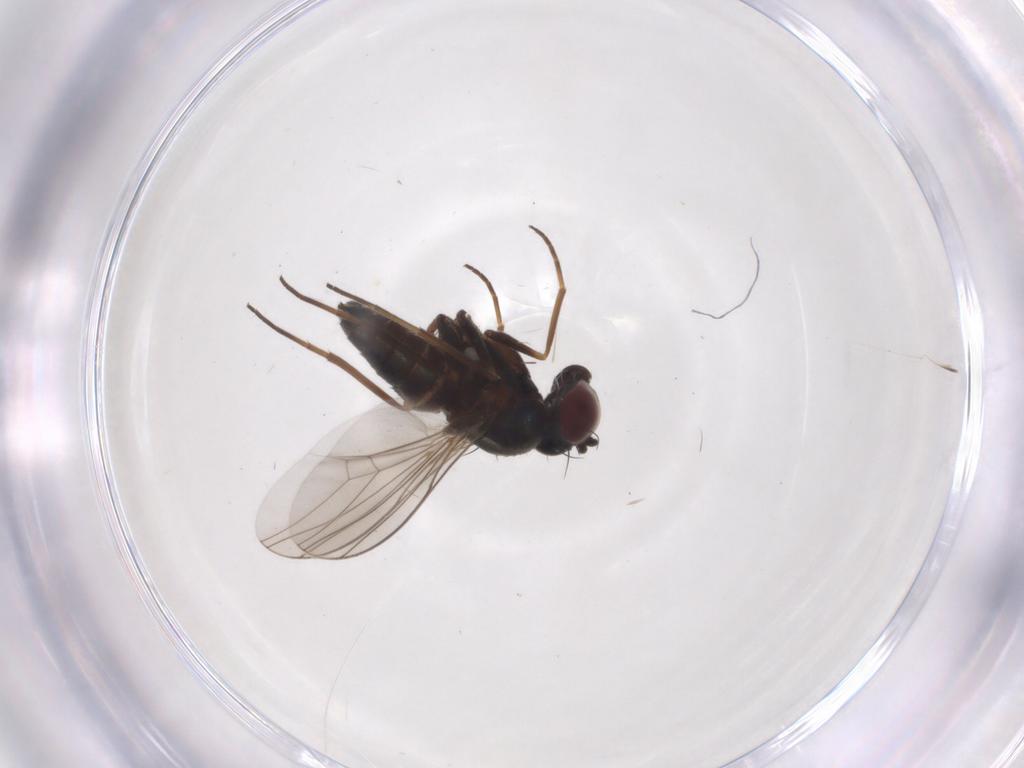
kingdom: Animalia
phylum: Arthropoda
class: Insecta
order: Diptera
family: Dolichopodidae
